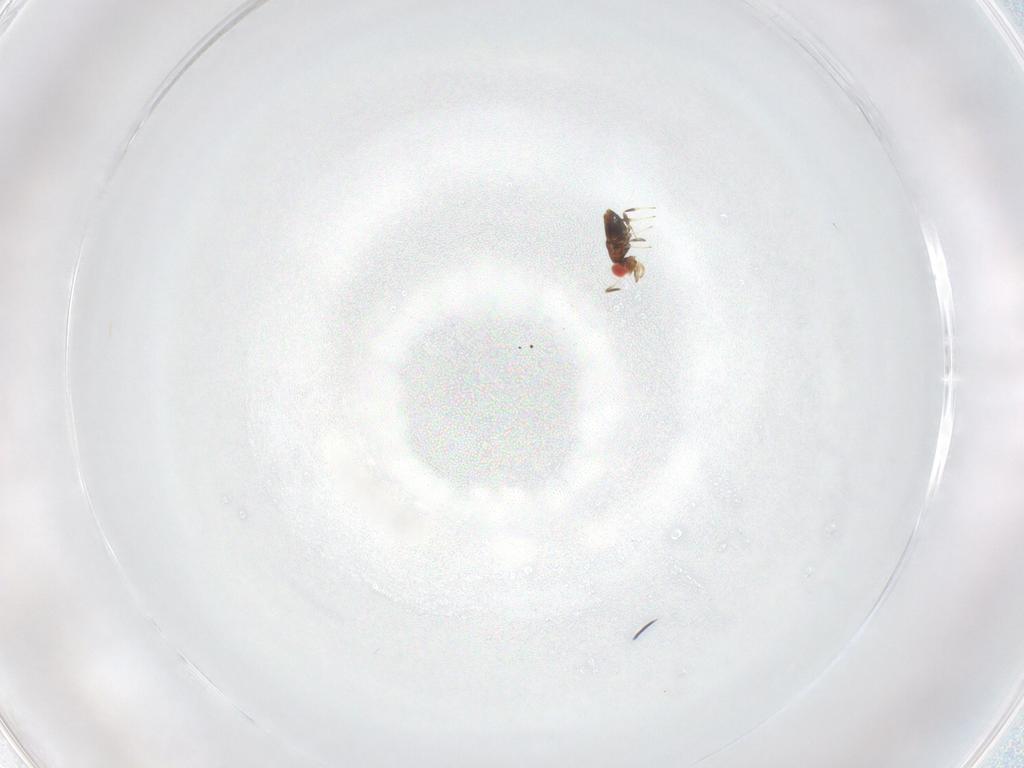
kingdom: Animalia
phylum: Arthropoda
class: Insecta
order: Hymenoptera
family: Trichogrammatidae
